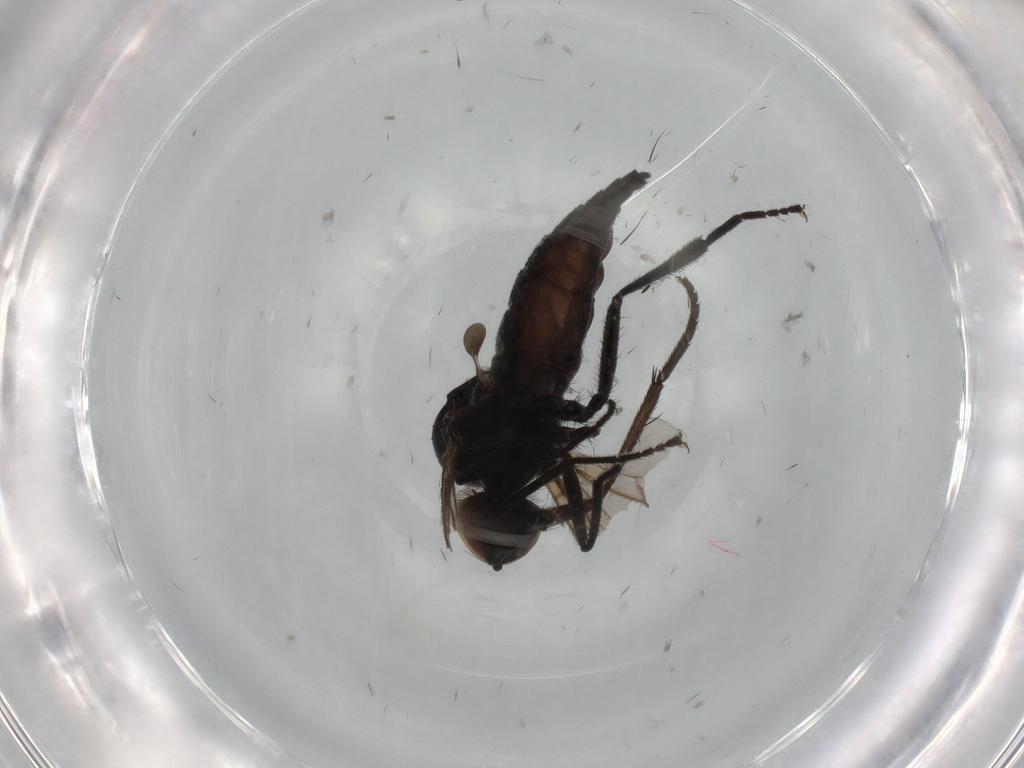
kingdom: Animalia
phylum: Arthropoda
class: Insecta
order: Diptera
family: Hybotidae
